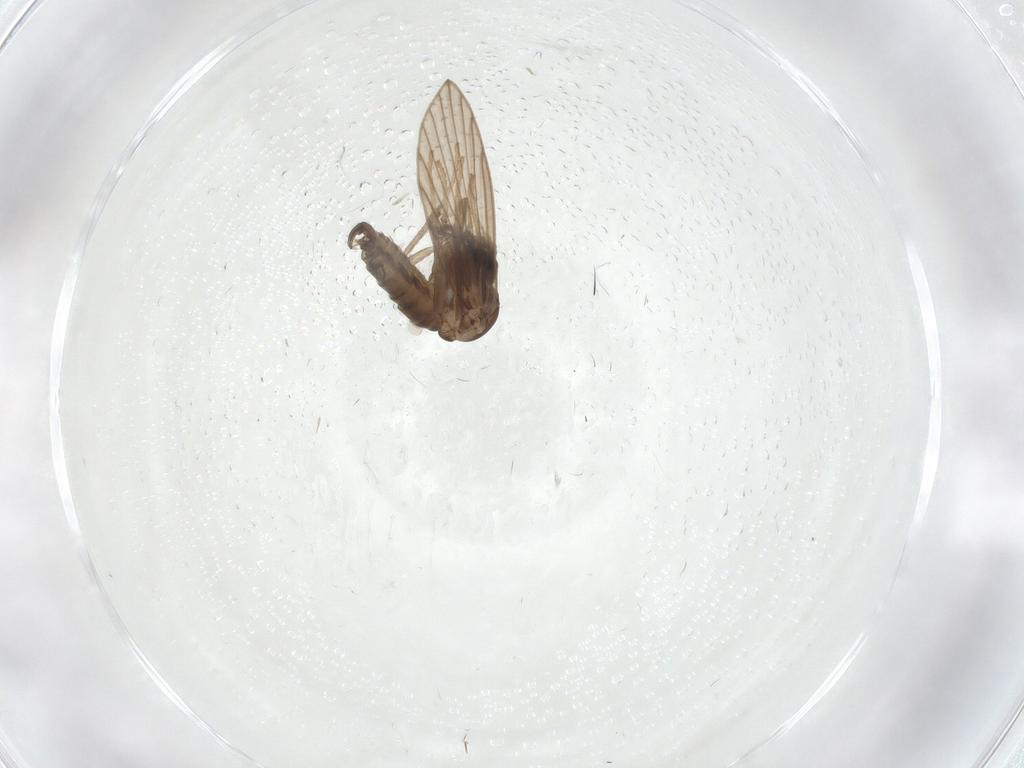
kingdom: Animalia
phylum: Arthropoda
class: Insecta
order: Diptera
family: Psychodidae
